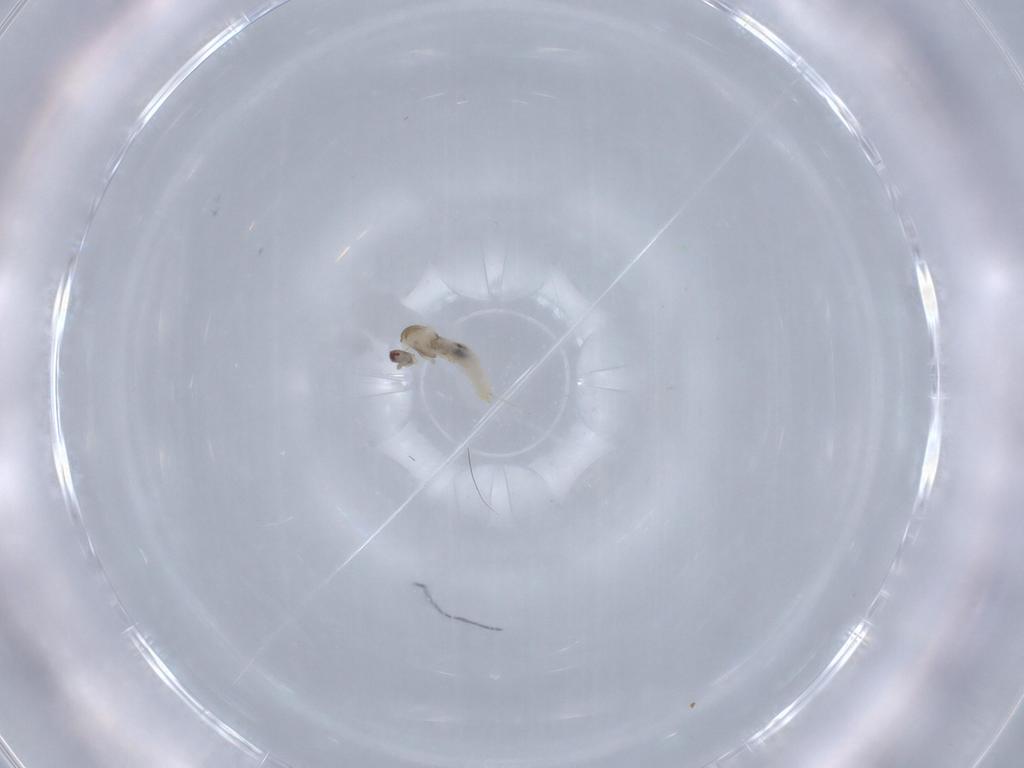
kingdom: Animalia
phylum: Arthropoda
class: Insecta
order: Diptera
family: Cecidomyiidae
